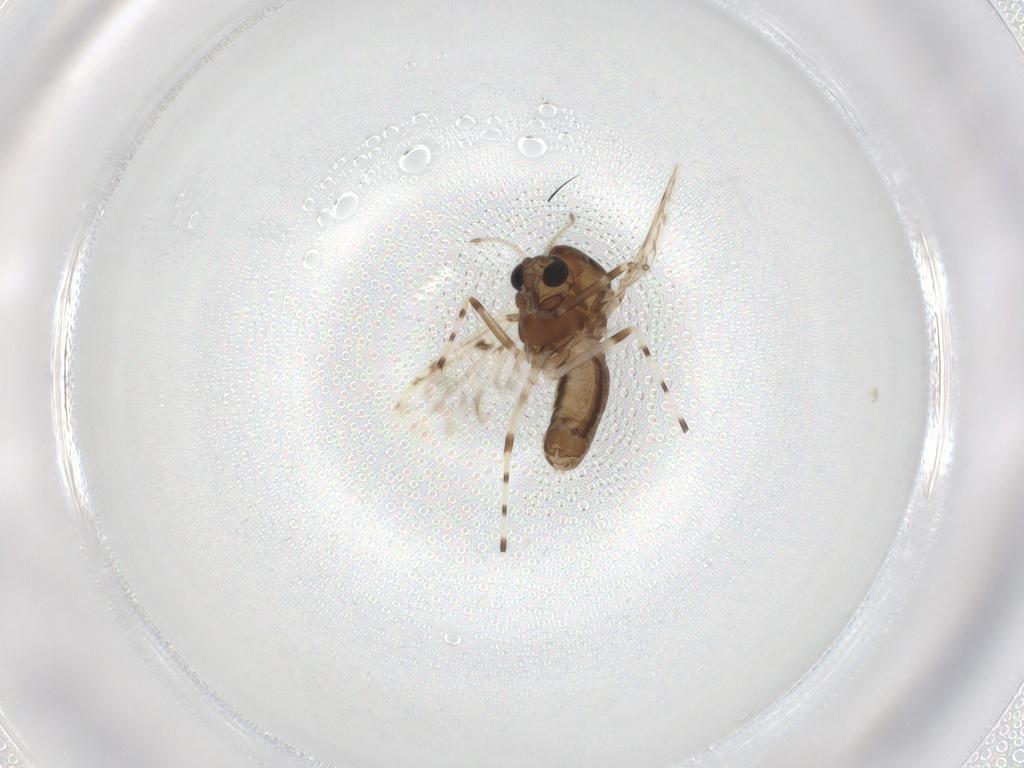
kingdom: Animalia
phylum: Arthropoda
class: Insecta
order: Diptera
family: Chironomidae
